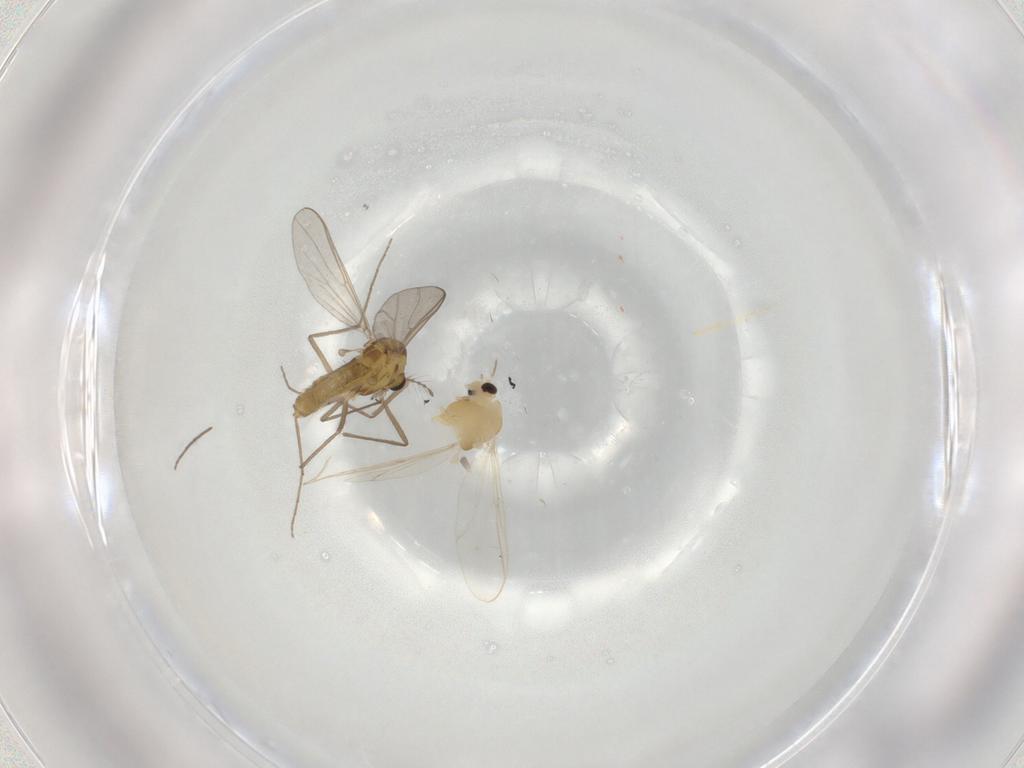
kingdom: Animalia
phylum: Arthropoda
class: Insecta
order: Diptera
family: Chironomidae
